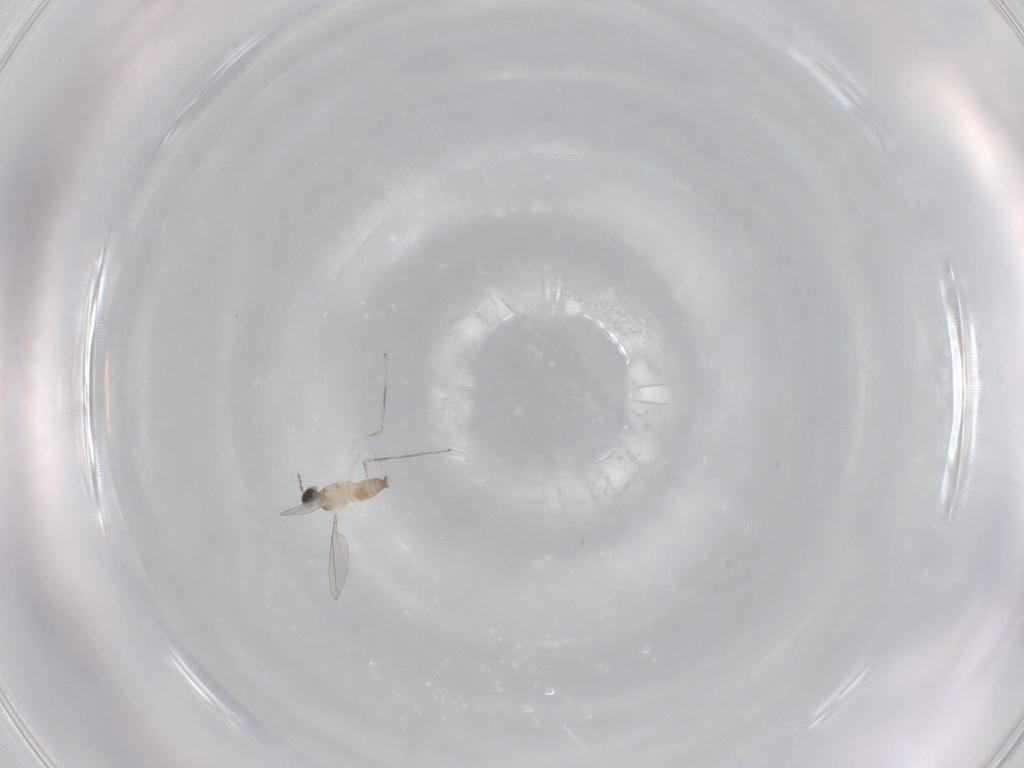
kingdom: Animalia
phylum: Arthropoda
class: Insecta
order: Diptera
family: Cecidomyiidae
